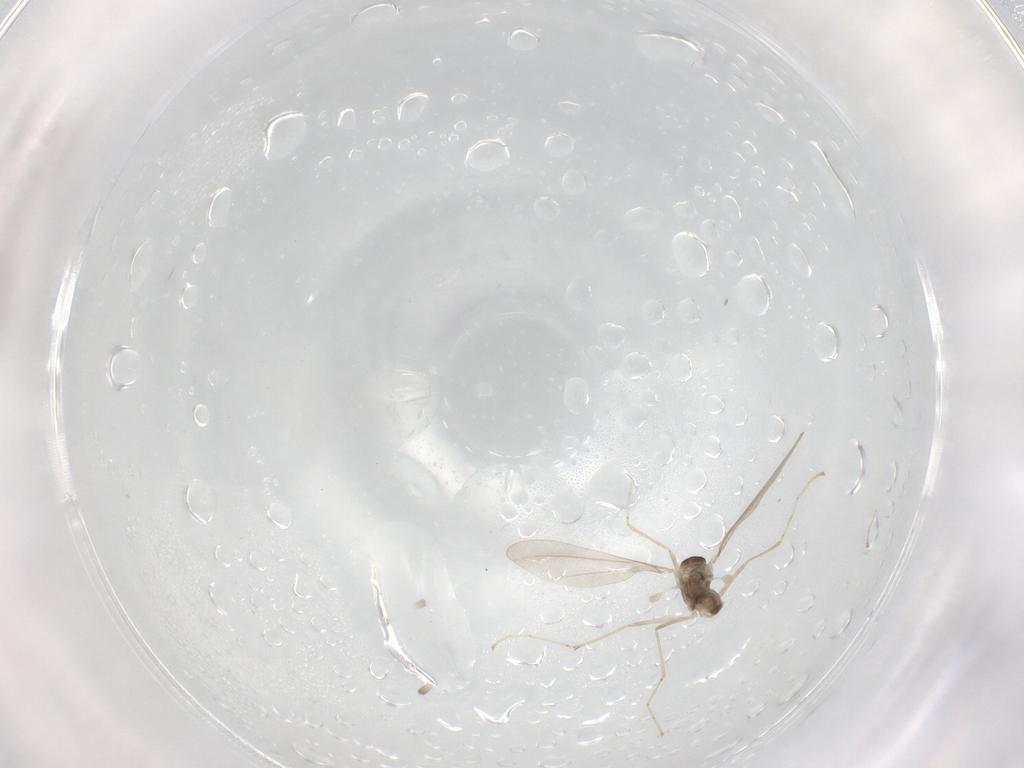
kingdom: Animalia
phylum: Arthropoda
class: Insecta
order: Diptera
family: Cecidomyiidae
